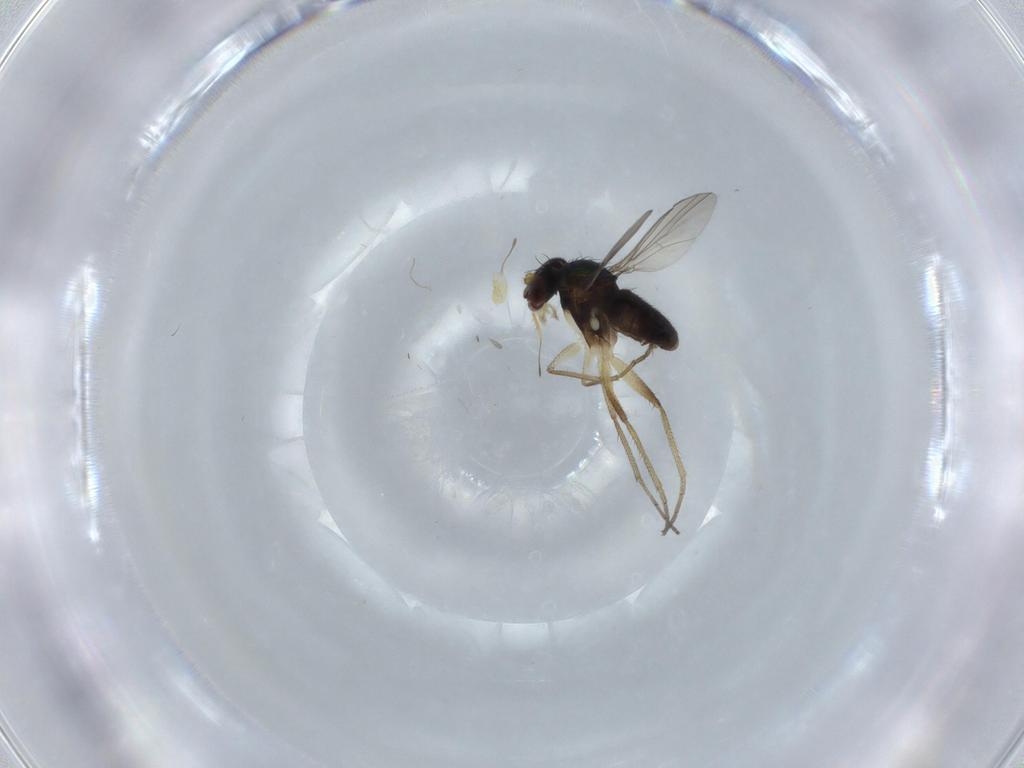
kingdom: Animalia
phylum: Arthropoda
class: Insecta
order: Diptera
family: Dolichopodidae
